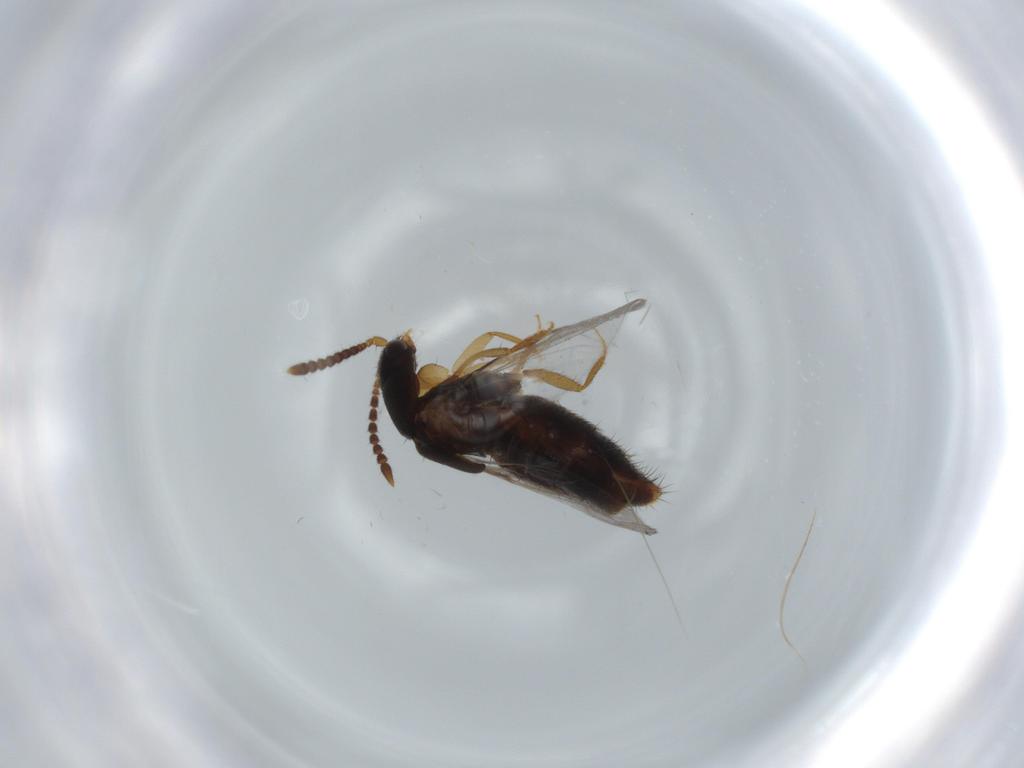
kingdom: Animalia
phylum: Arthropoda
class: Insecta
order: Coleoptera
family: Staphylinidae
